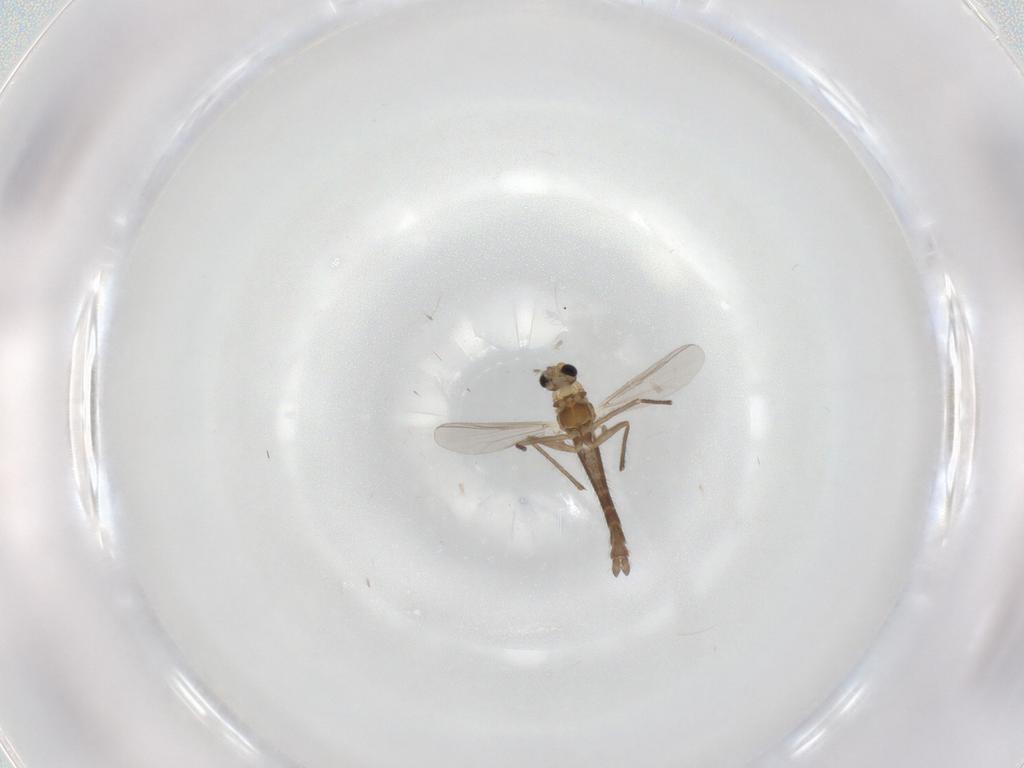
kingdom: Animalia
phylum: Arthropoda
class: Insecta
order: Diptera
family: Chironomidae
